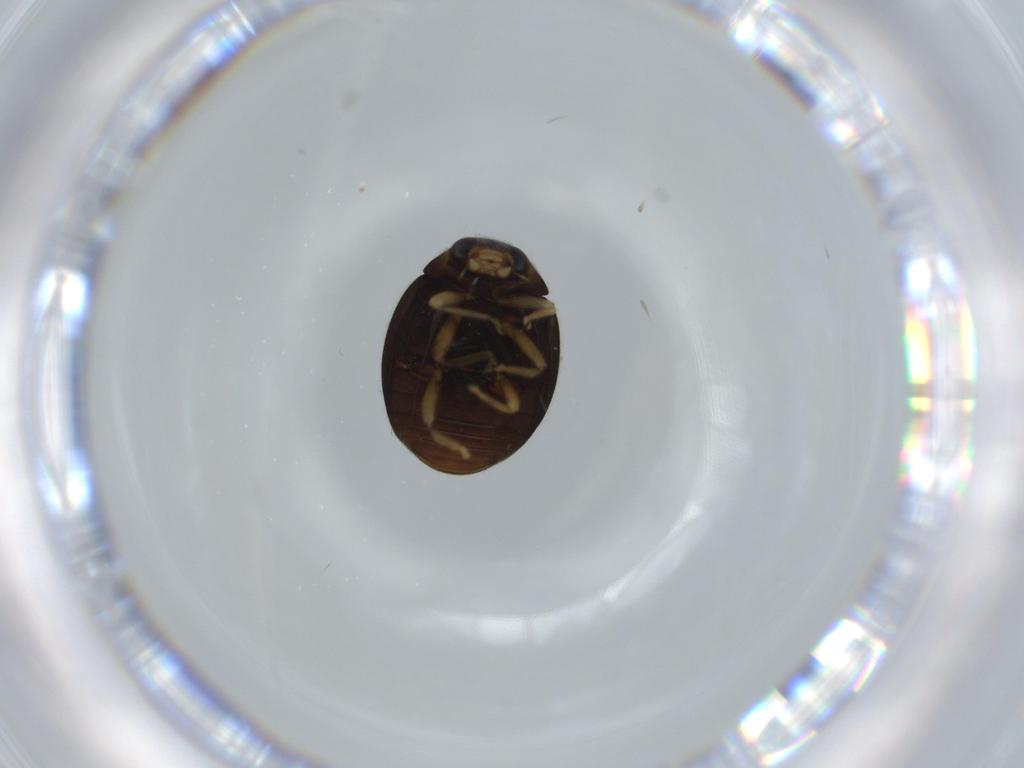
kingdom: Animalia
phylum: Arthropoda
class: Insecta
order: Coleoptera
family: Coccinellidae
